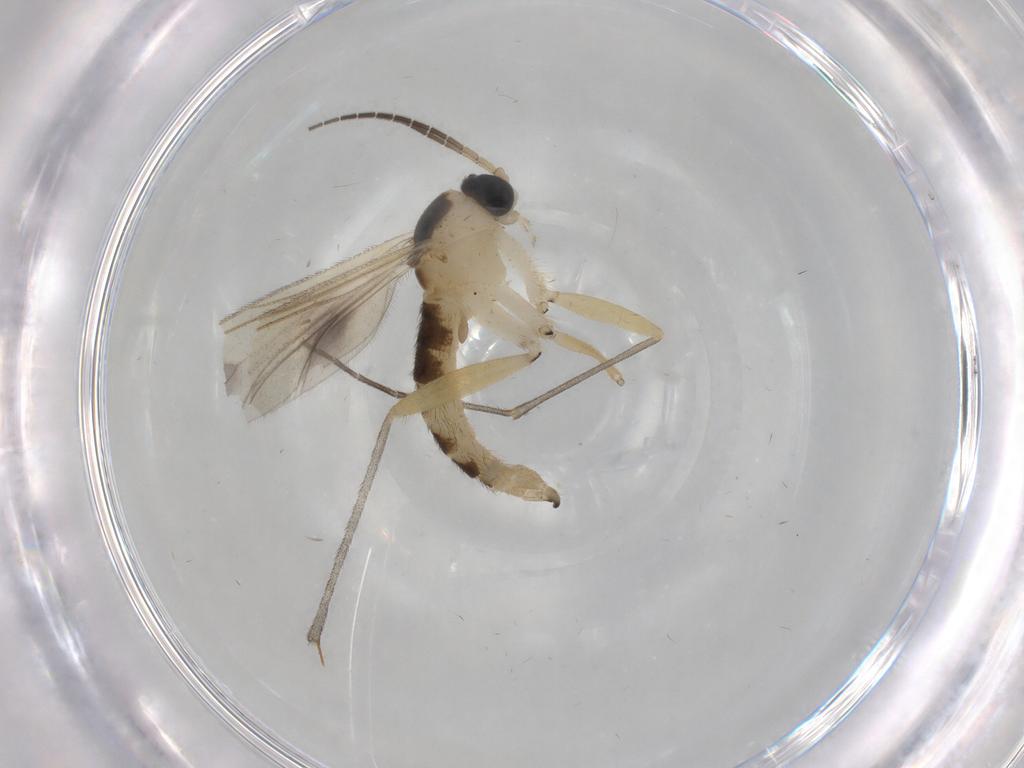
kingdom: Animalia
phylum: Arthropoda
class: Insecta
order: Diptera
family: Sciaridae
